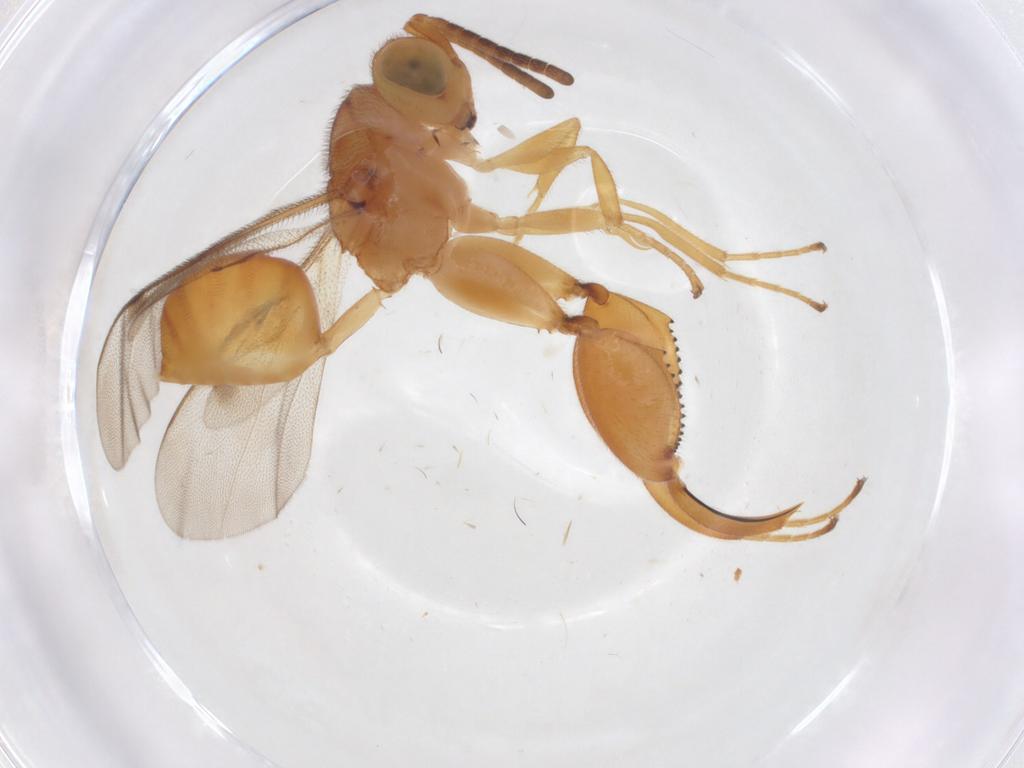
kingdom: Animalia
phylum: Arthropoda
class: Insecta
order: Hymenoptera
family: Chalcididae
